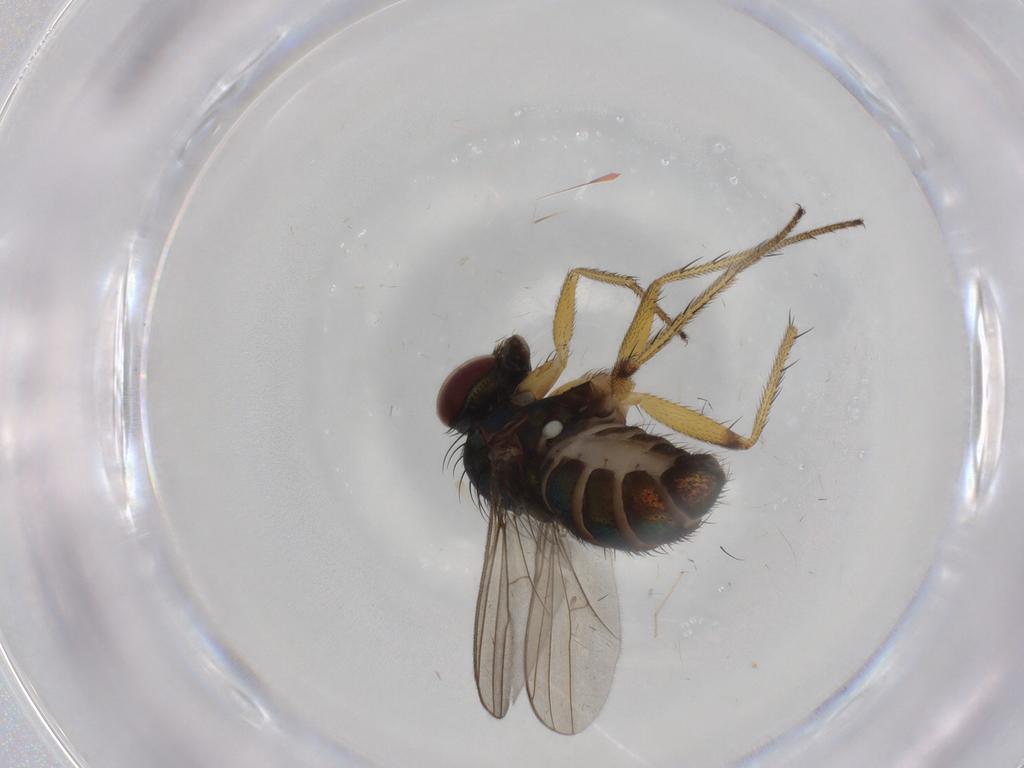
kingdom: Animalia
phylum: Arthropoda
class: Insecta
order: Diptera
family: Dolichopodidae
